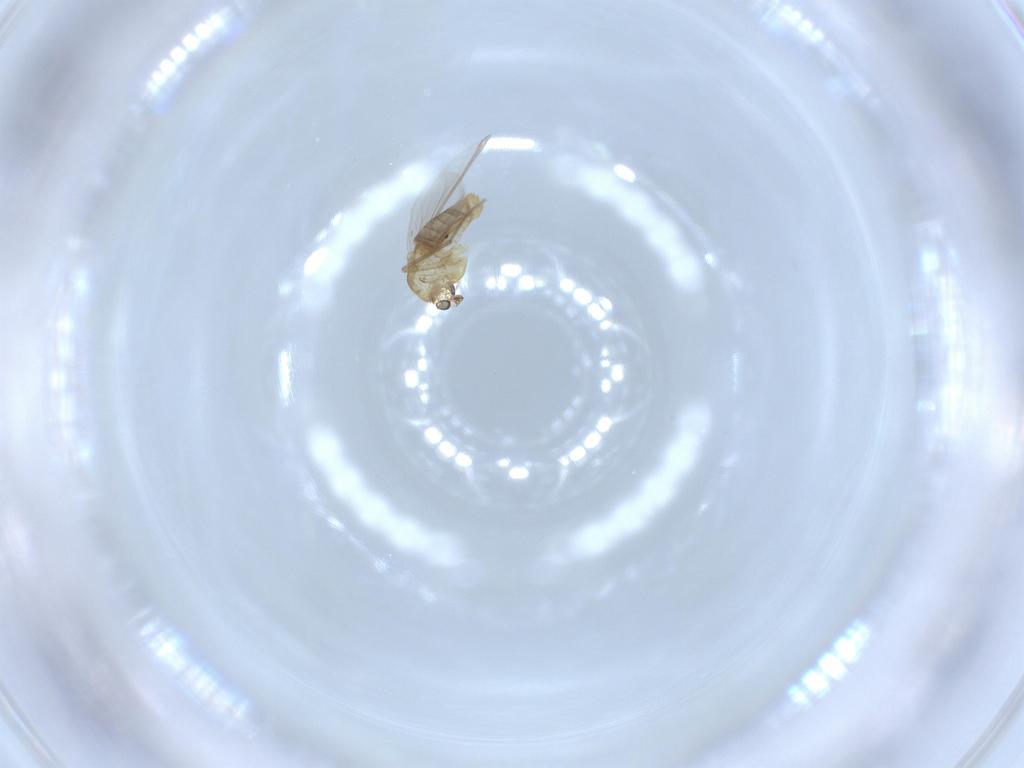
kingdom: Animalia
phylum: Arthropoda
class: Insecta
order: Diptera
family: Chironomidae
